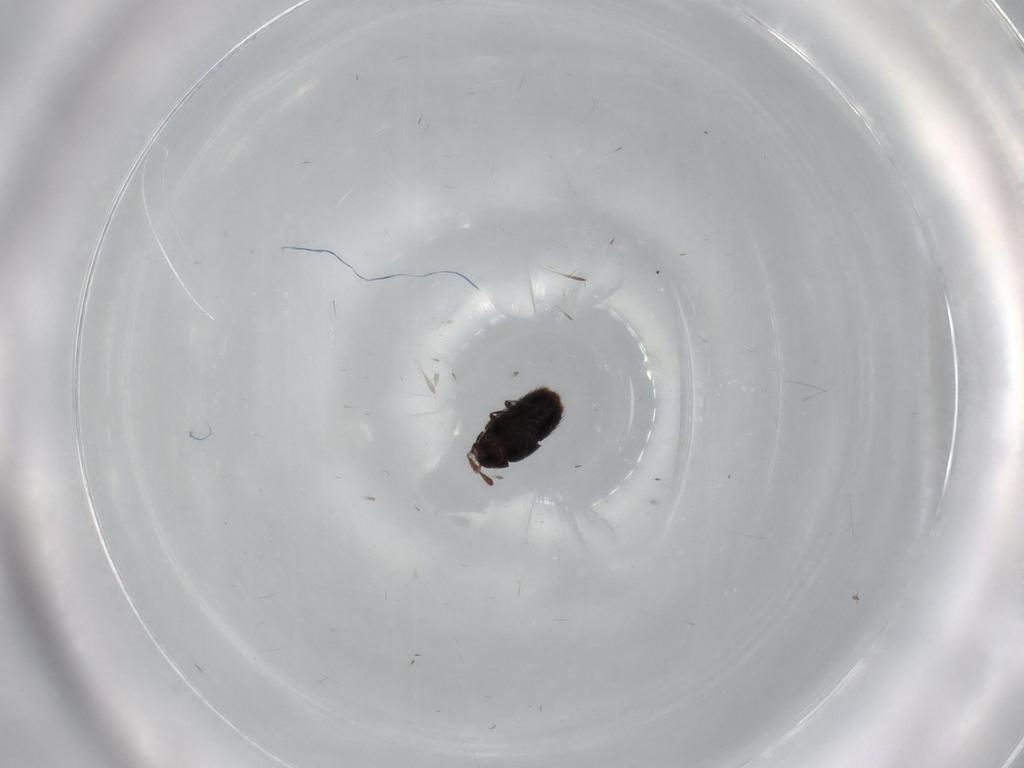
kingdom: Animalia
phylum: Arthropoda
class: Insecta
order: Coleoptera
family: Staphylinidae
